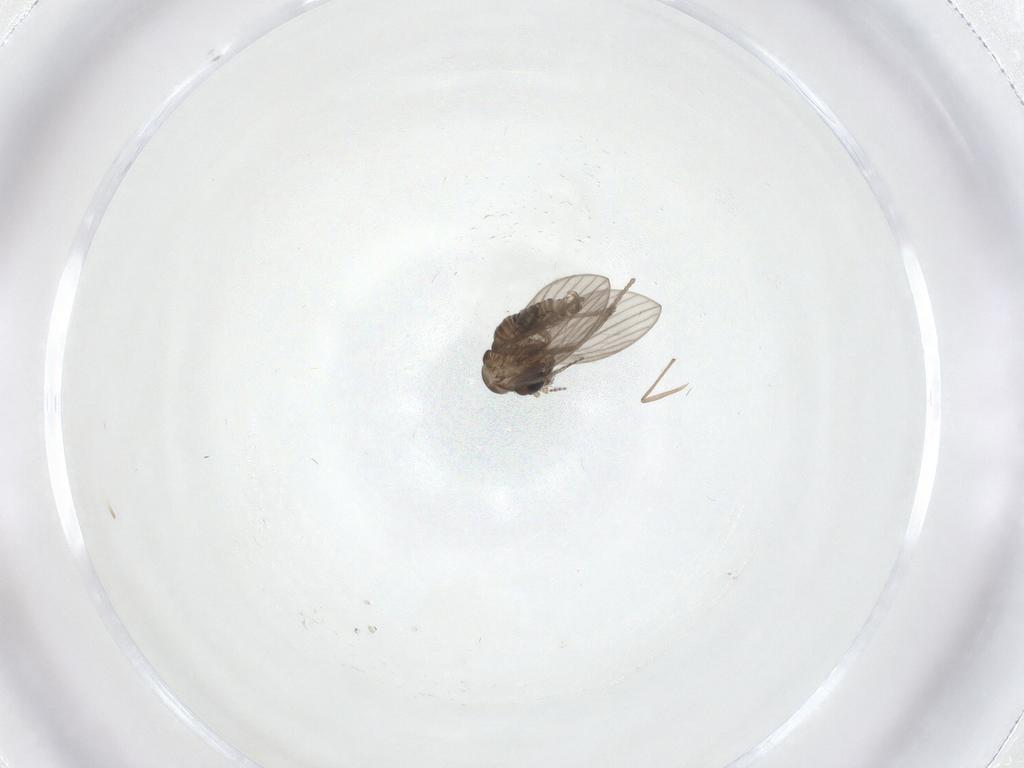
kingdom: Animalia
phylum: Arthropoda
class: Insecta
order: Diptera
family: Psychodidae
